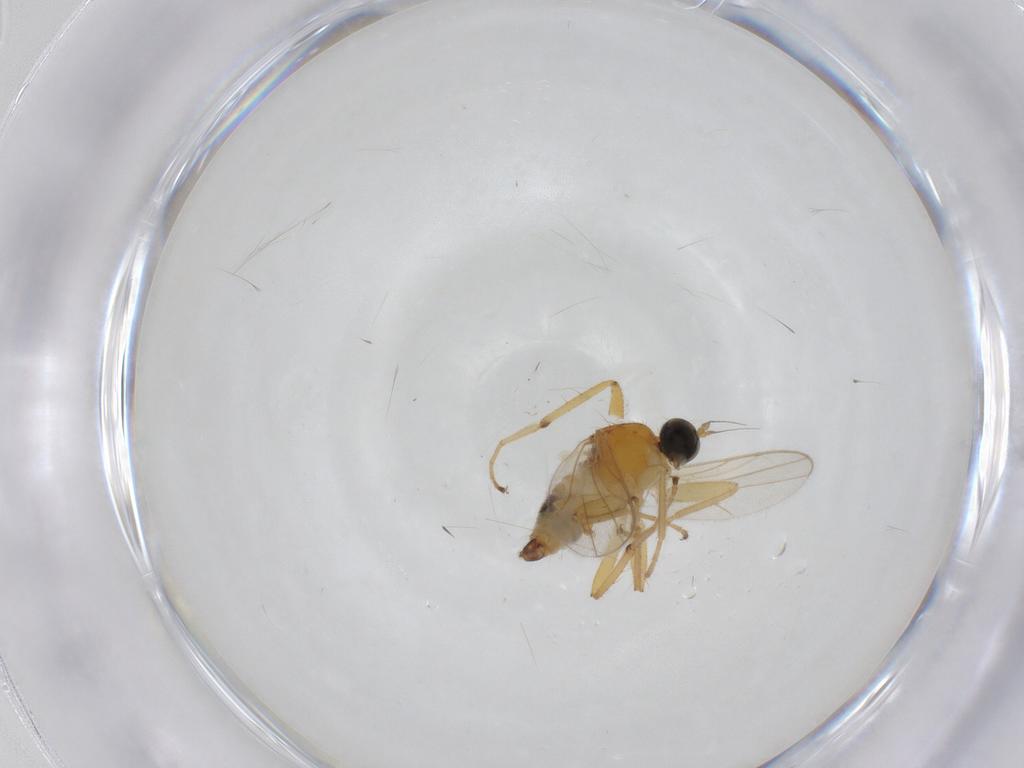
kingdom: Animalia
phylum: Arthropoda
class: Insecta
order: Diptera
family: Hybotidae
